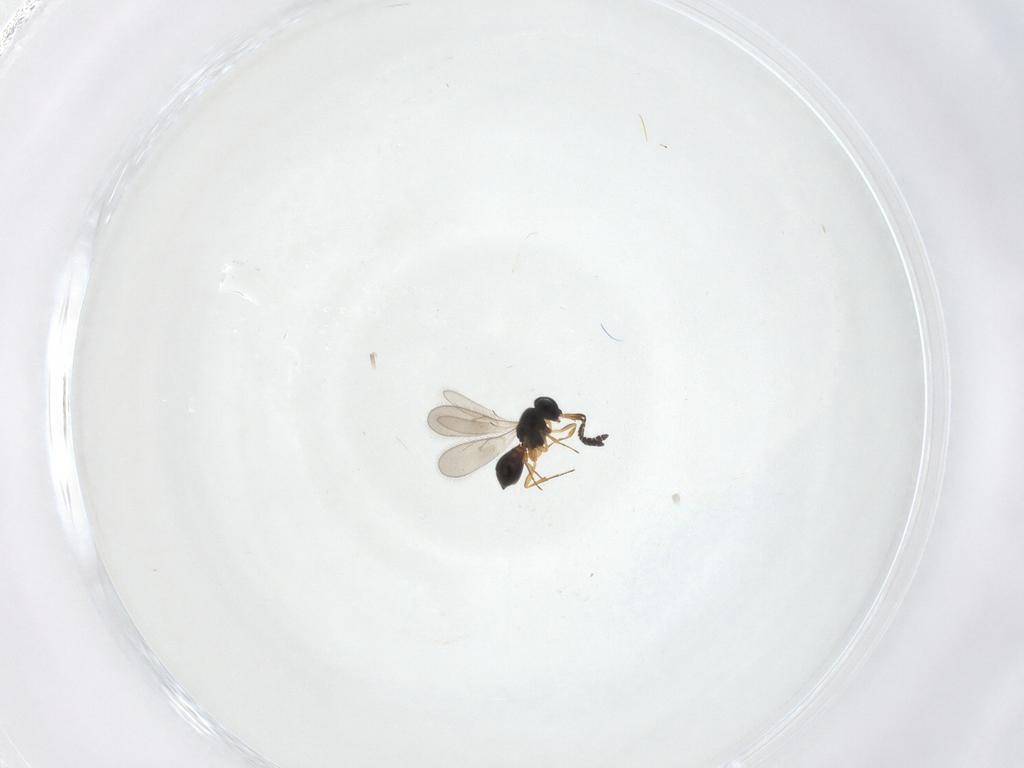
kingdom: Animalia
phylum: Arthropoda
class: Insecta
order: Hymenoptera
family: Scelionidae
